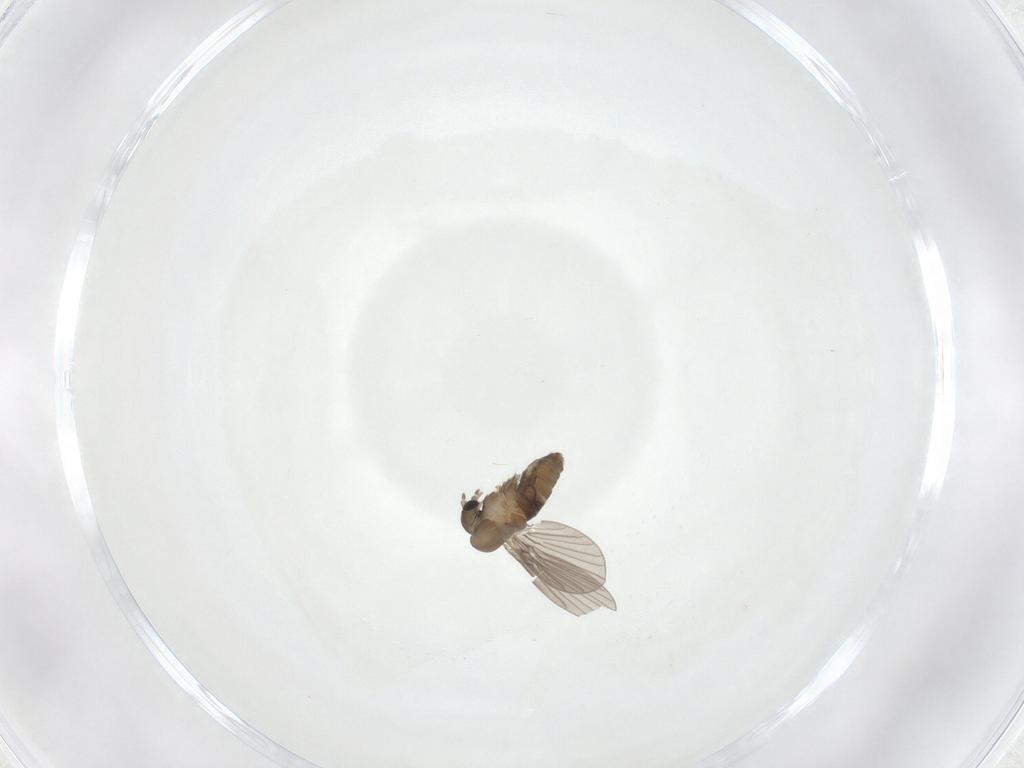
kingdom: Animalia
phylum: Arthropoda
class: Insecta
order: Diptera
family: Psychodidae
